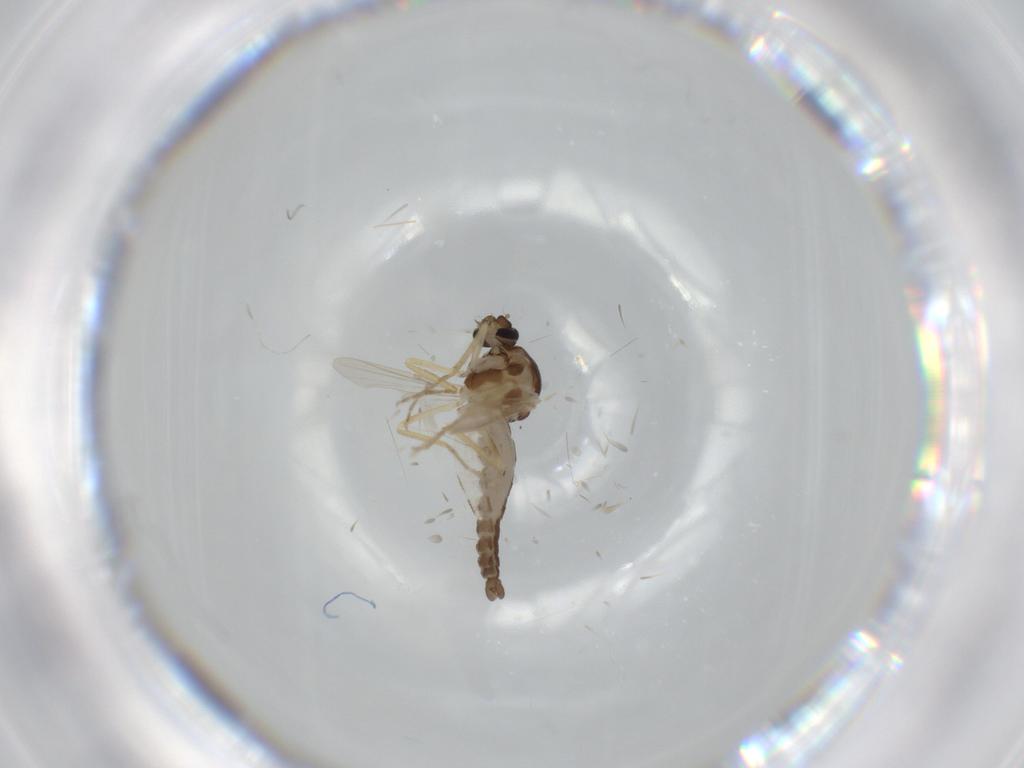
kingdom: Animalia
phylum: Arthropoda
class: Insecta
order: Diptera
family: Milichiidae
